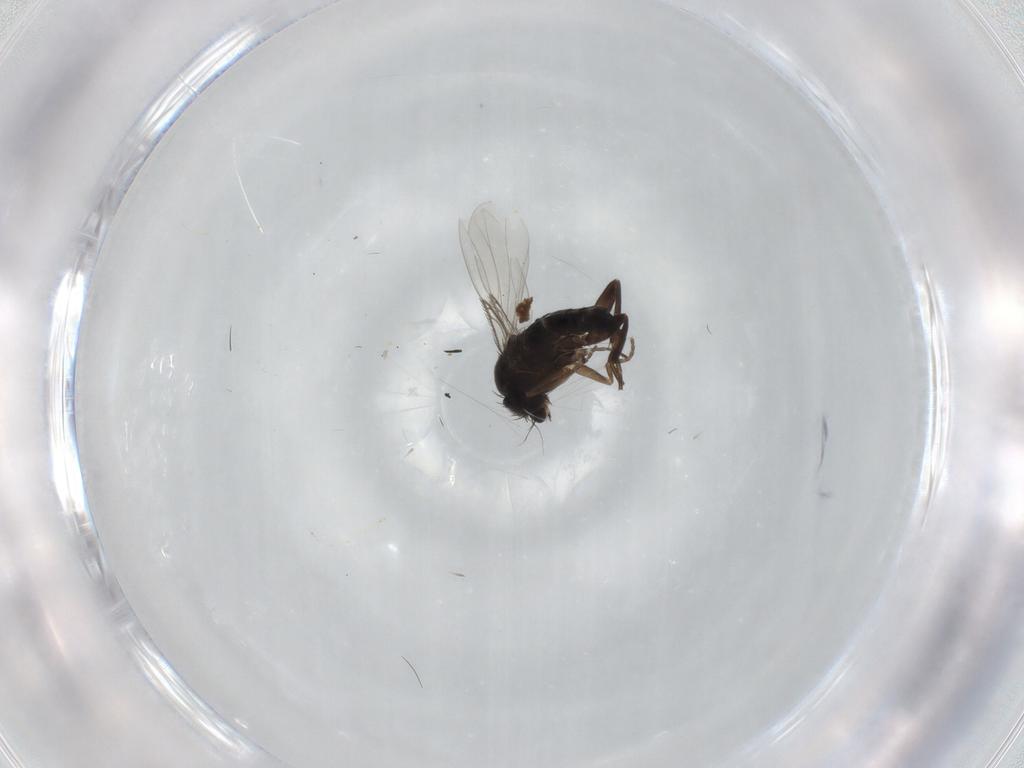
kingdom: Animalia
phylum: Arthropoda
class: Insecta
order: Diptera
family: Phoridae
